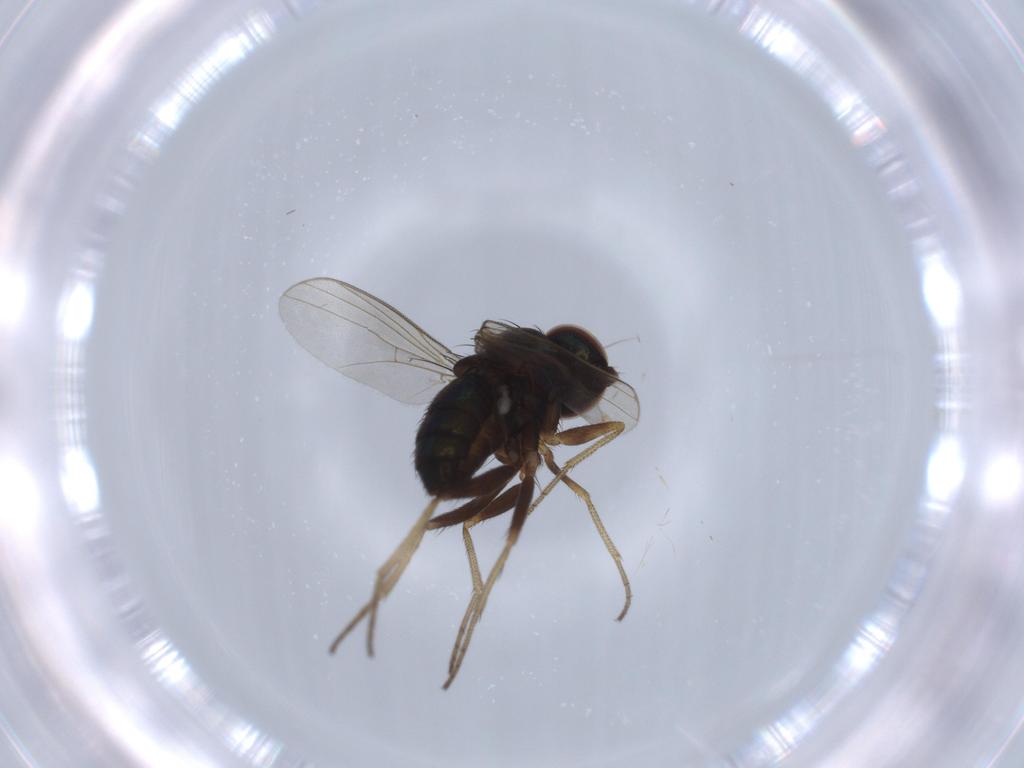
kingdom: Animalia
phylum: Arthropoda
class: Insecta
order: Diptera
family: Dolichopodidae
